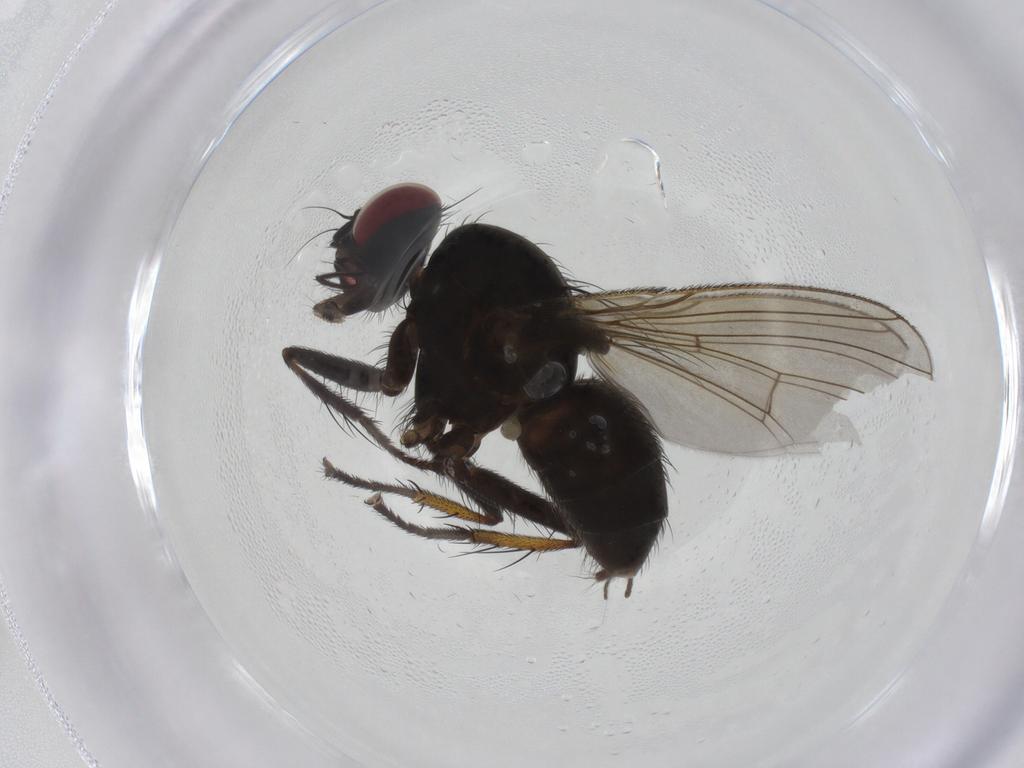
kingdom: Animalia
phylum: Arthropoda
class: Insecta
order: Diptera
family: Muscidae
